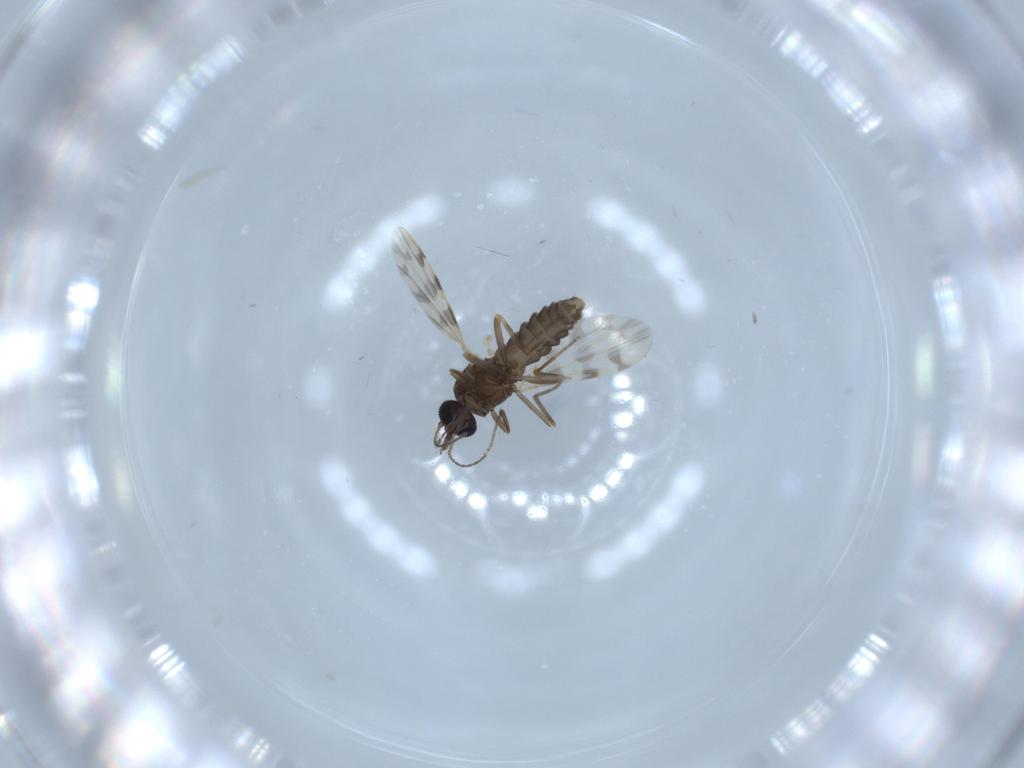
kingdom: Animalia
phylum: Arthropoda
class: Insecta
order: Diptera
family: Ceratopogonidae
